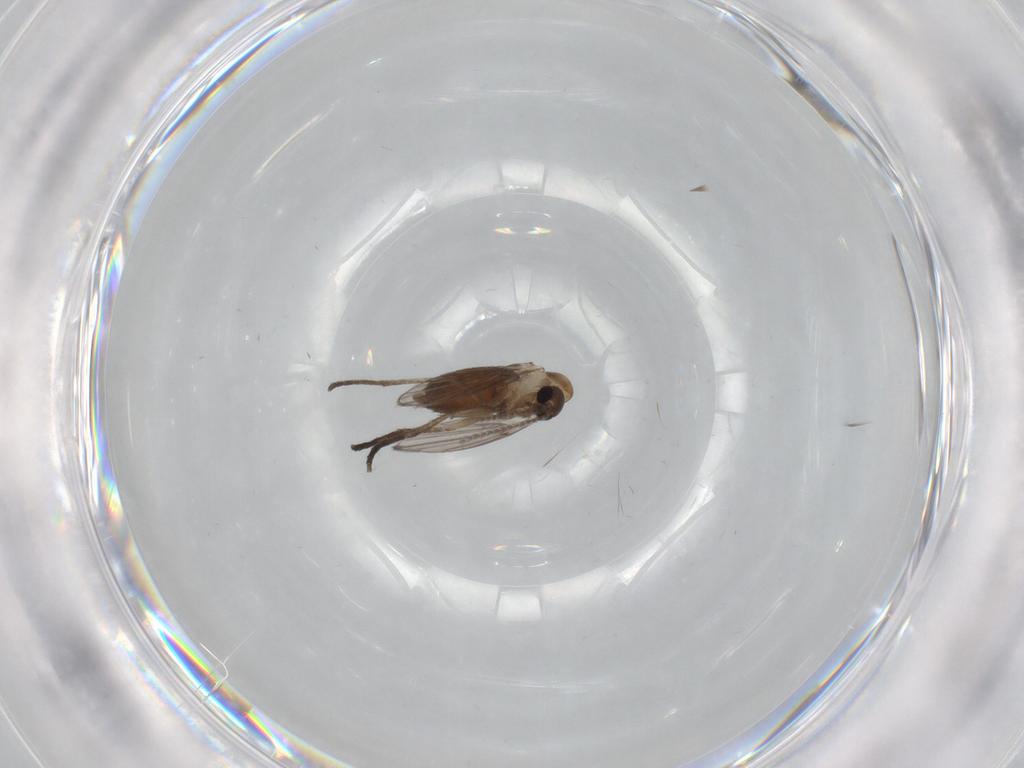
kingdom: Animalia
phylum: Arthropoda
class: Insecta
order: Diptera
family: Psychodidae
